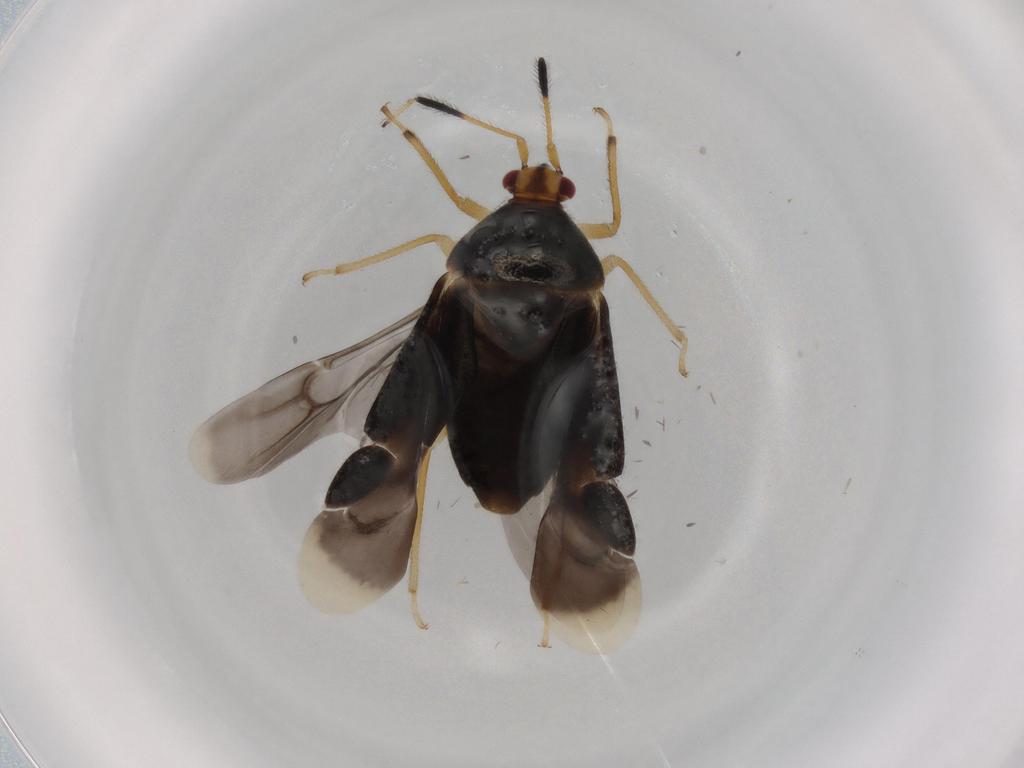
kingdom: Animalia
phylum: Arthropoda
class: Insecta
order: Hemiptera
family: Miridae
